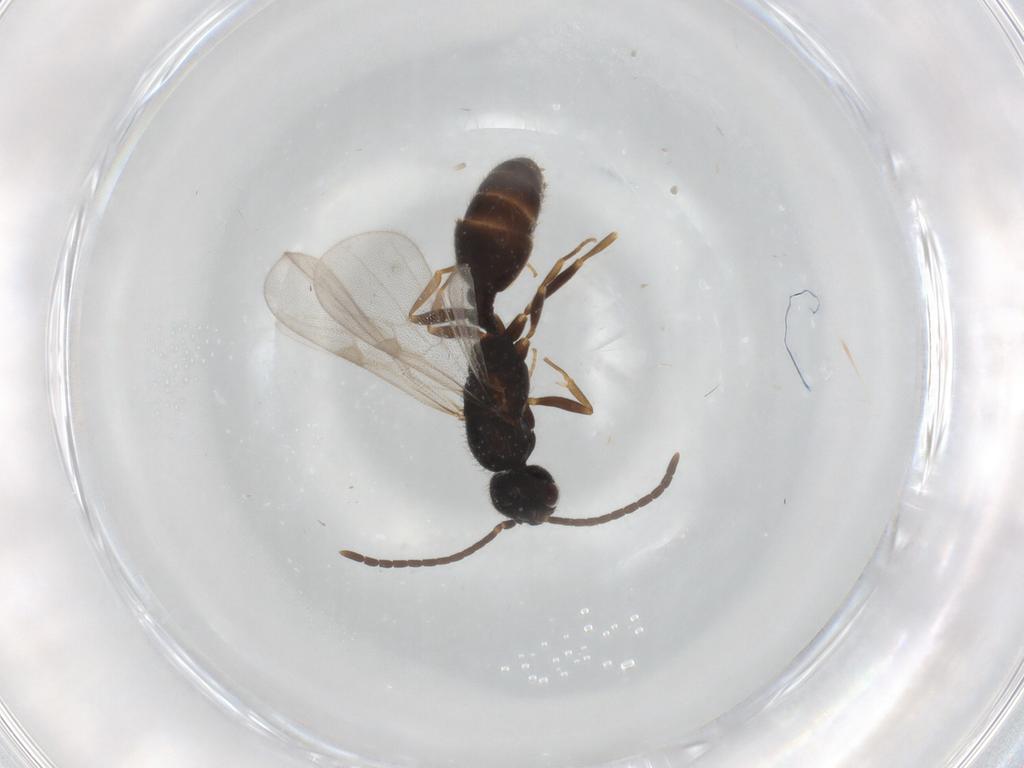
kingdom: Animalia
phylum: Arthropoda
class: Insecta
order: Hymenoptera
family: Formicidae
